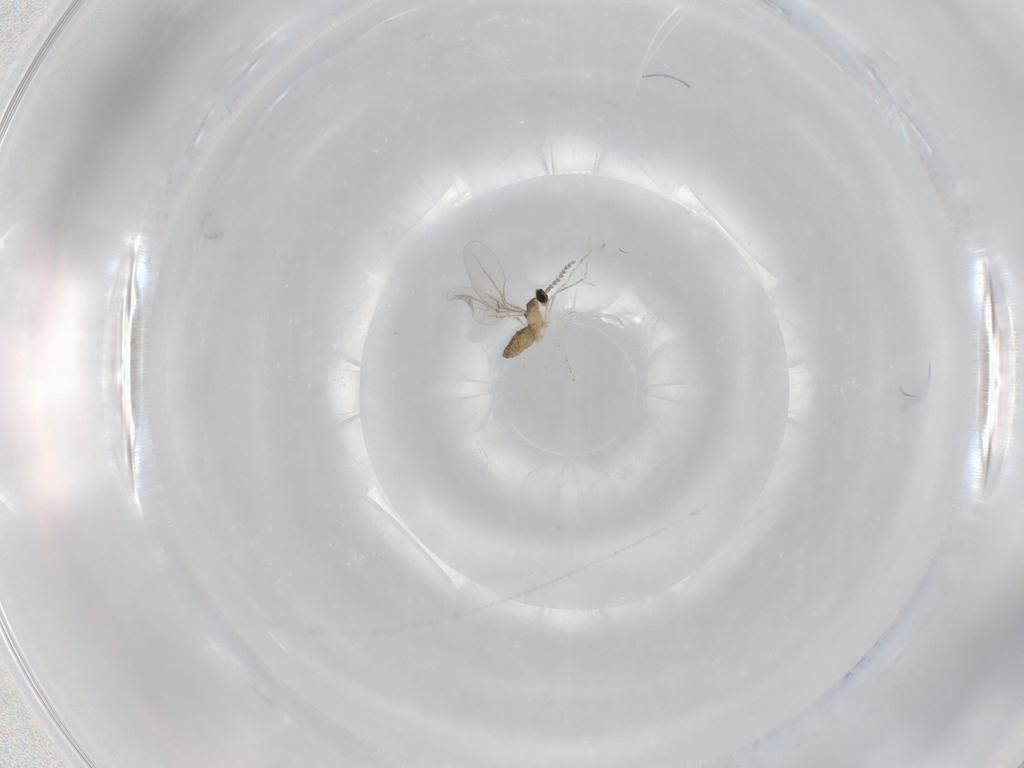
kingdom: Animalia
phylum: Arthropoda
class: Insecta
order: Diptera
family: Cecidomyiidae
